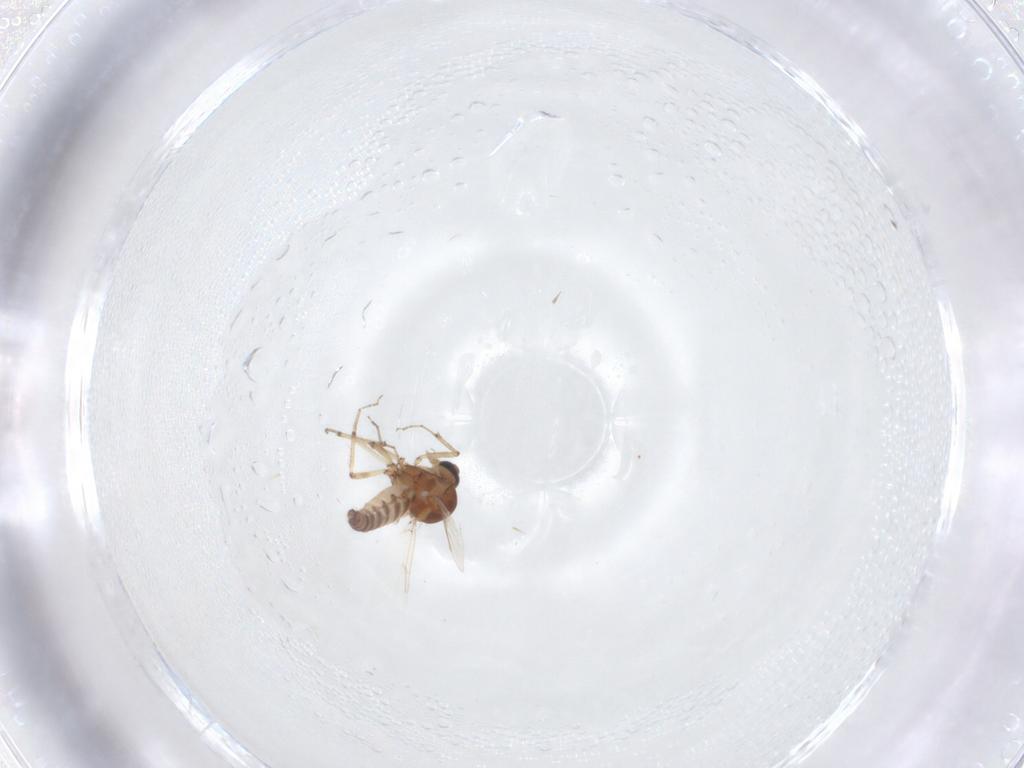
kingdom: Animalia
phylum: Arthropoda
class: Insecta
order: Diptera
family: Ceratopogonidae
